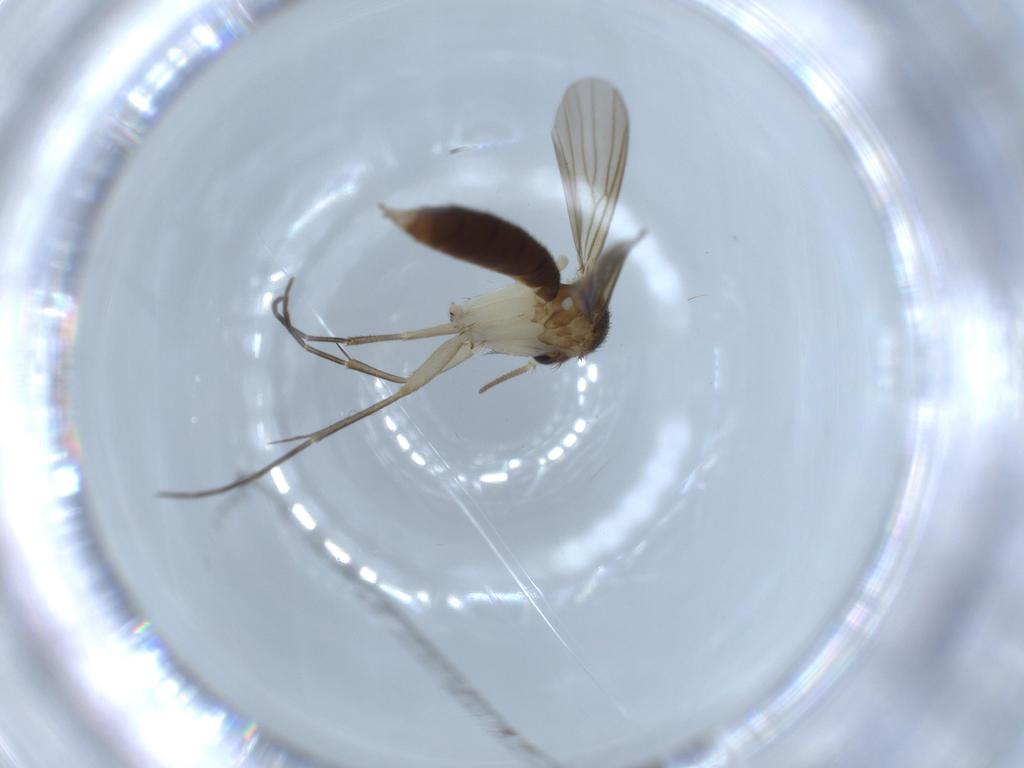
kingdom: Animalia
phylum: Arthropoda
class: Insecta
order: Diptera
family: Mycetophilidae
